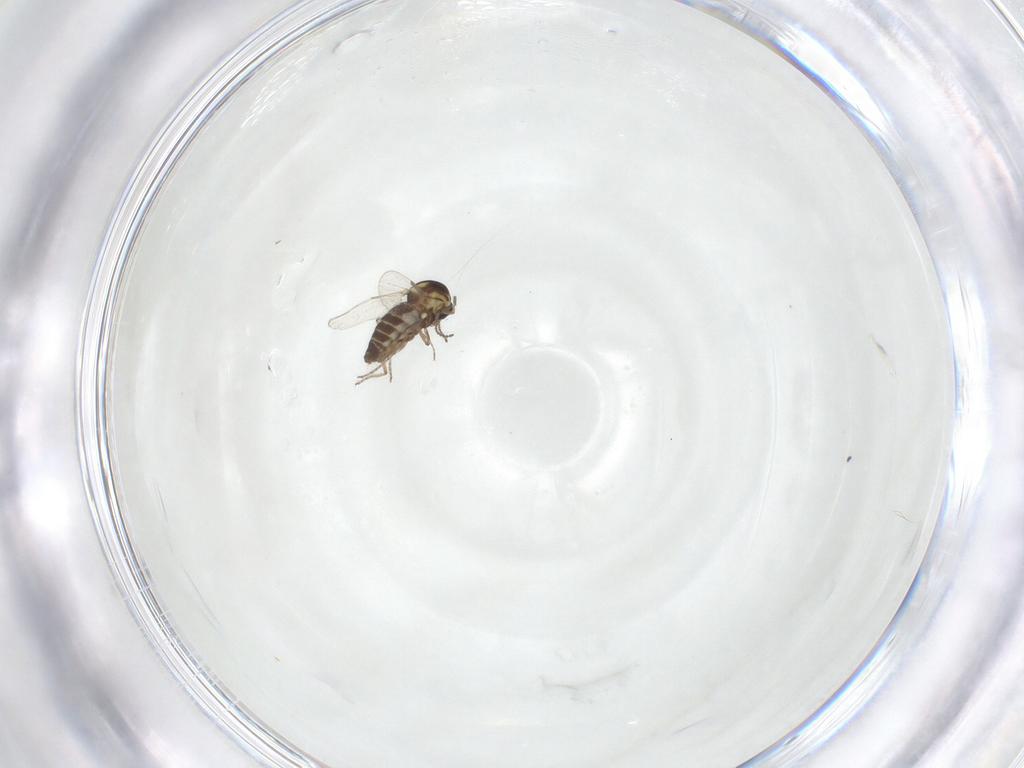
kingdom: Animalia
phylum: Arthropoda
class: Insecta
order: Diptera
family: Ceratopogonidae
